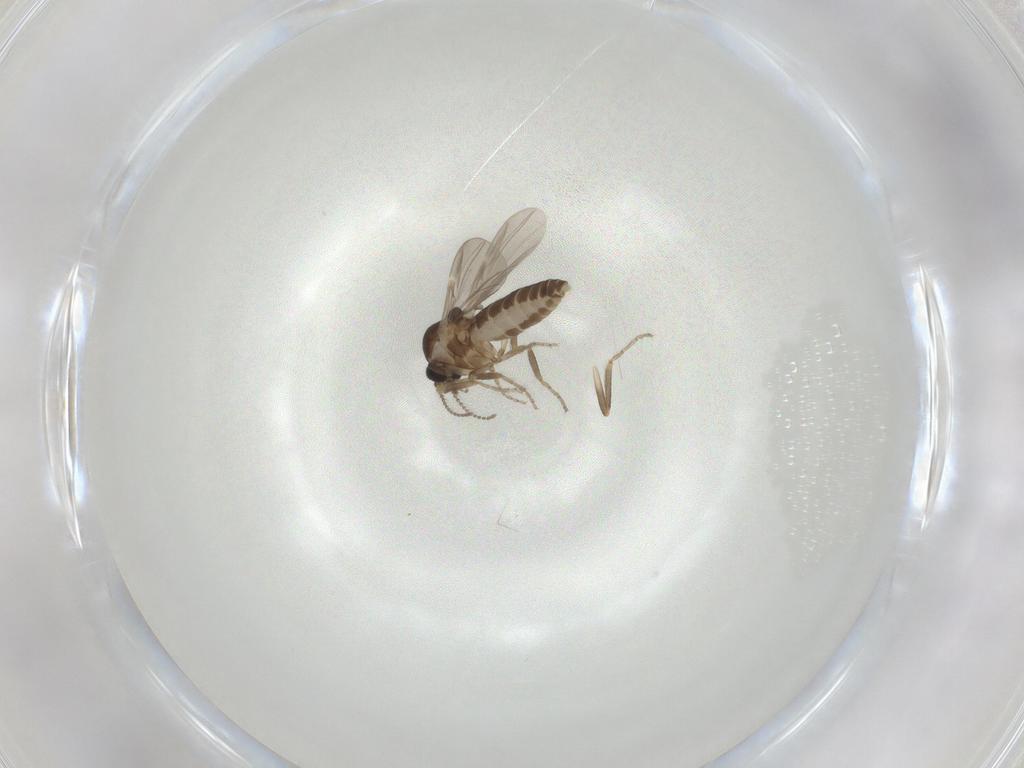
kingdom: Animalia
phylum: Arthropoda
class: Insecta
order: Diptera
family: Ceratopogonidae
